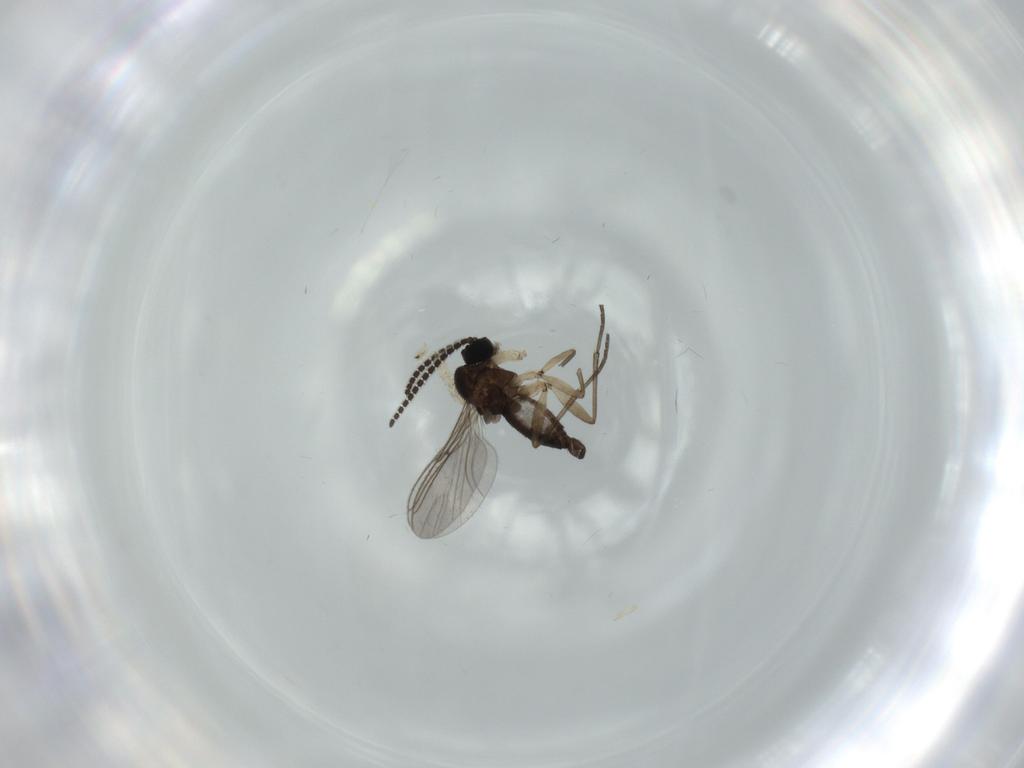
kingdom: Animalia
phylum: Arthropoda
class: Insecta
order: Diptera
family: Sciaridae
